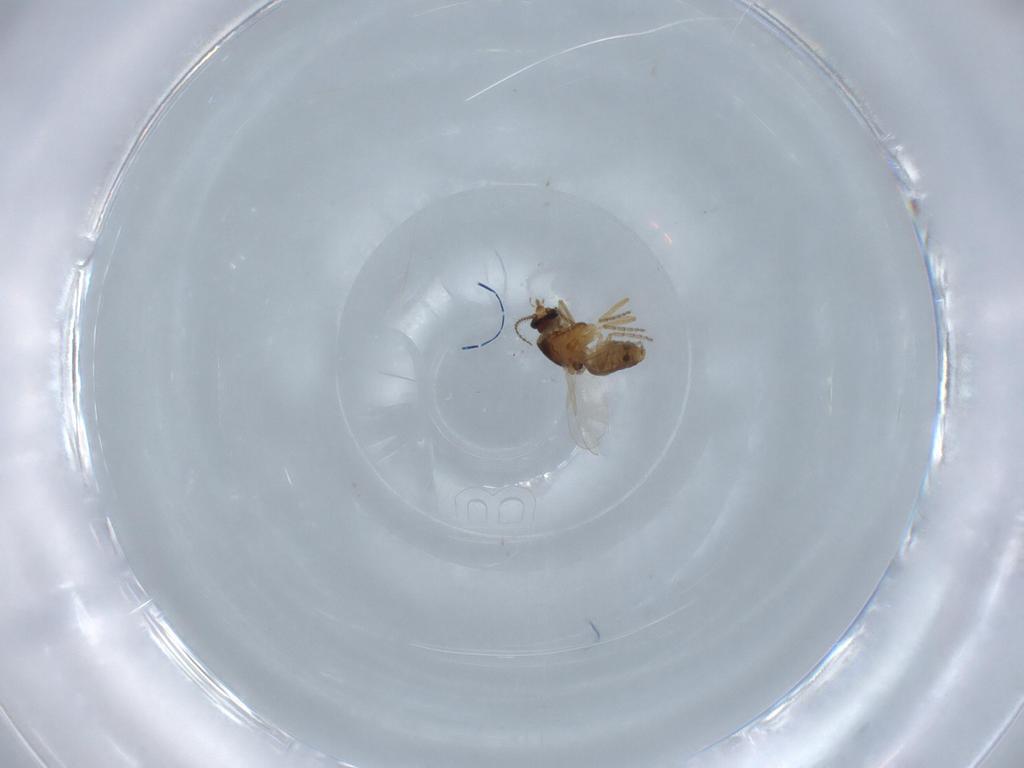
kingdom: Animalia
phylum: Arthropoda
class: Insecta
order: Diptera
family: Ceratopogonidae
